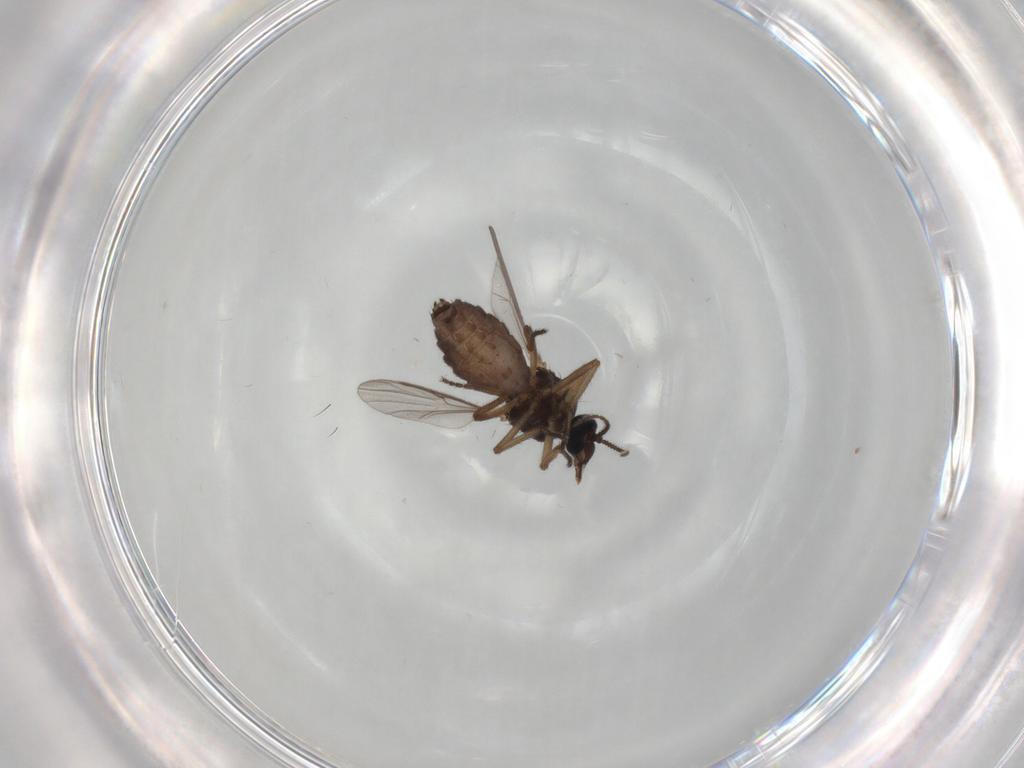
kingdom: Animalia
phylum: Arthropoda
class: Insecta
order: Diptera
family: Ceratopogonidae
